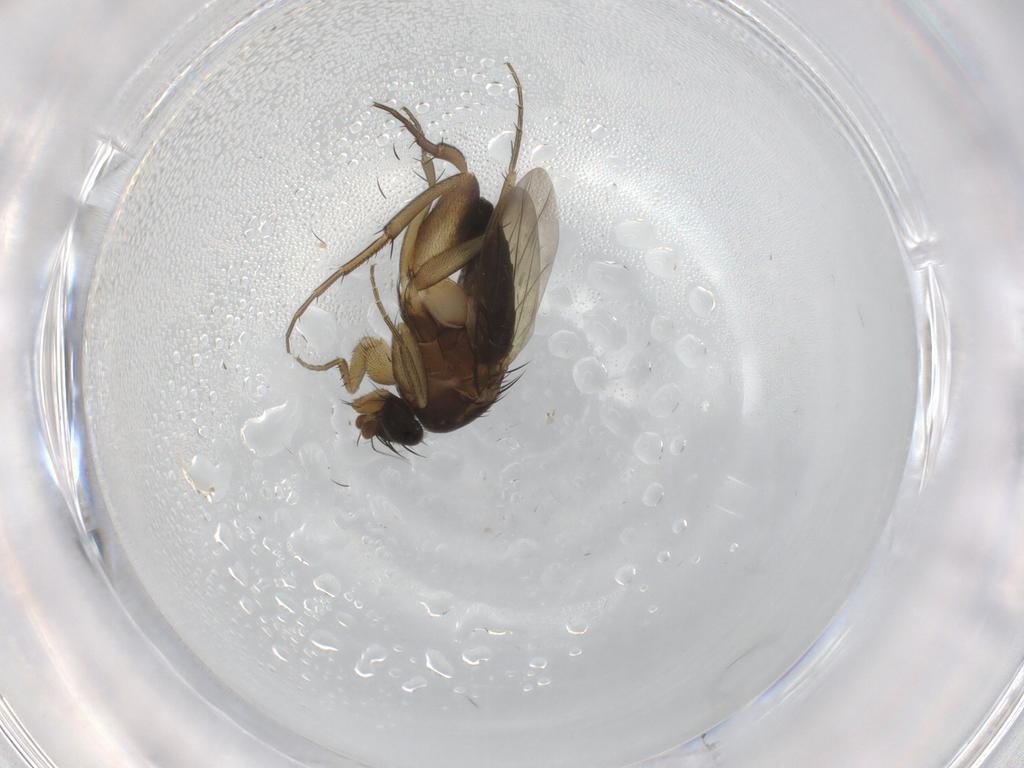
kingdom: Animalia
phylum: Arthropoda
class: Insecta
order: Diptera
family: Phoridae
